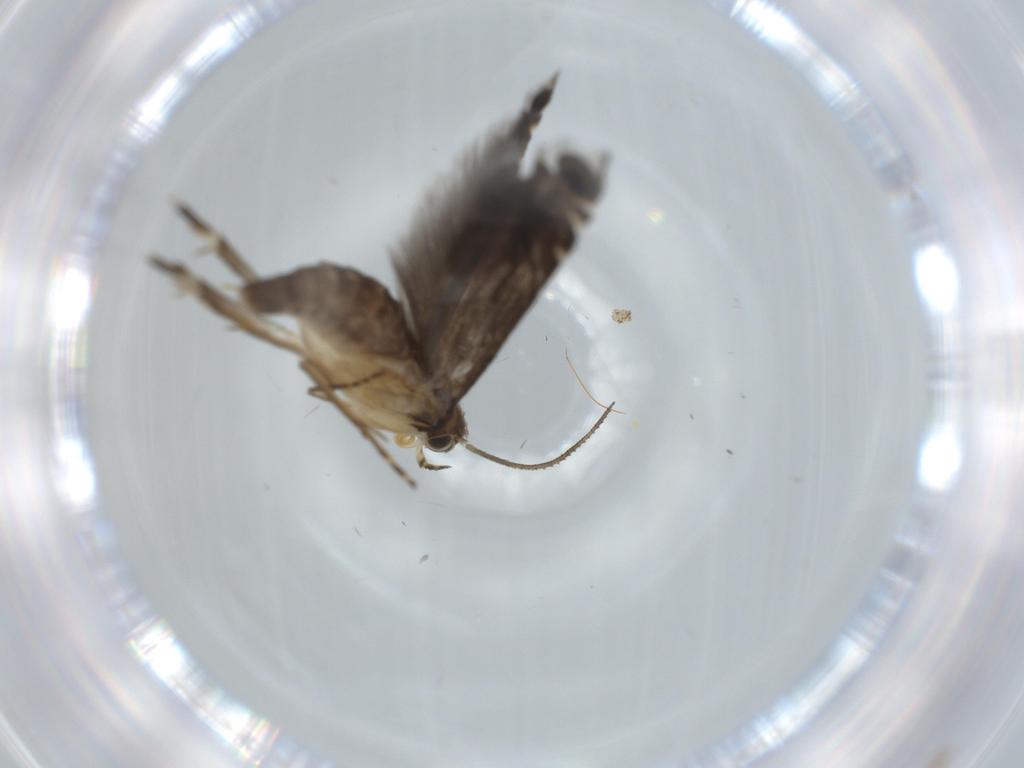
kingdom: Animalia
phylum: Arthropoda
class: Insecta
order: Lepidoptera
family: Glyphipterigidae
